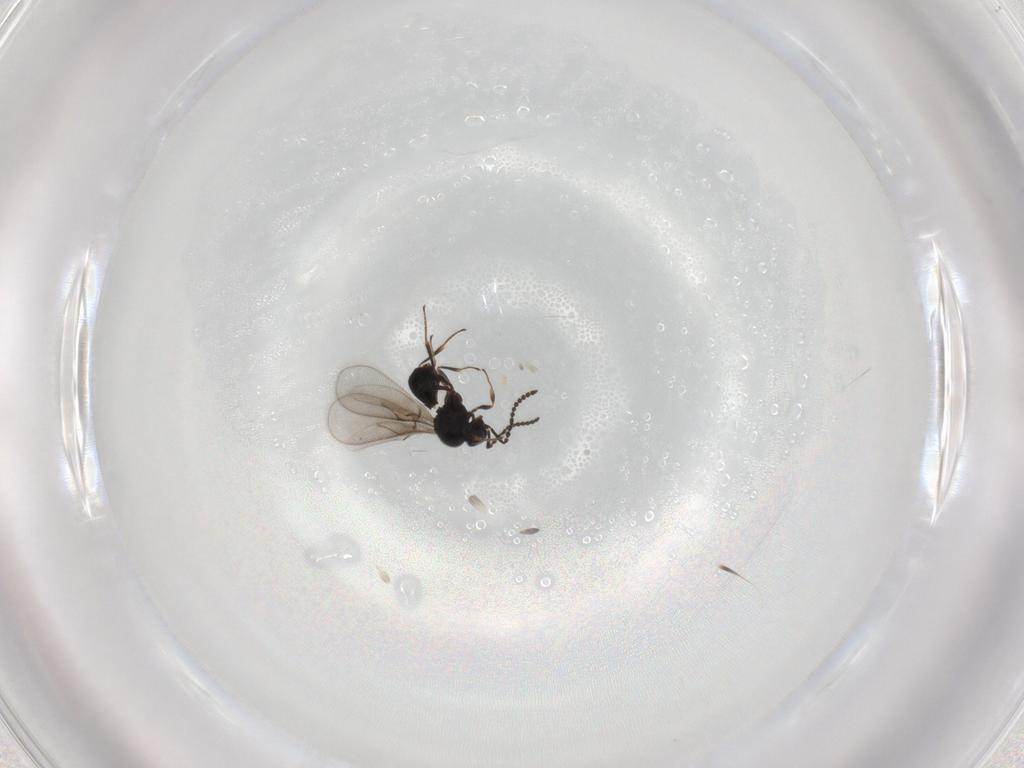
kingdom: Animalia
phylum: Arthropoda
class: Insecta
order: Hymenoptera
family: Scelionidae
